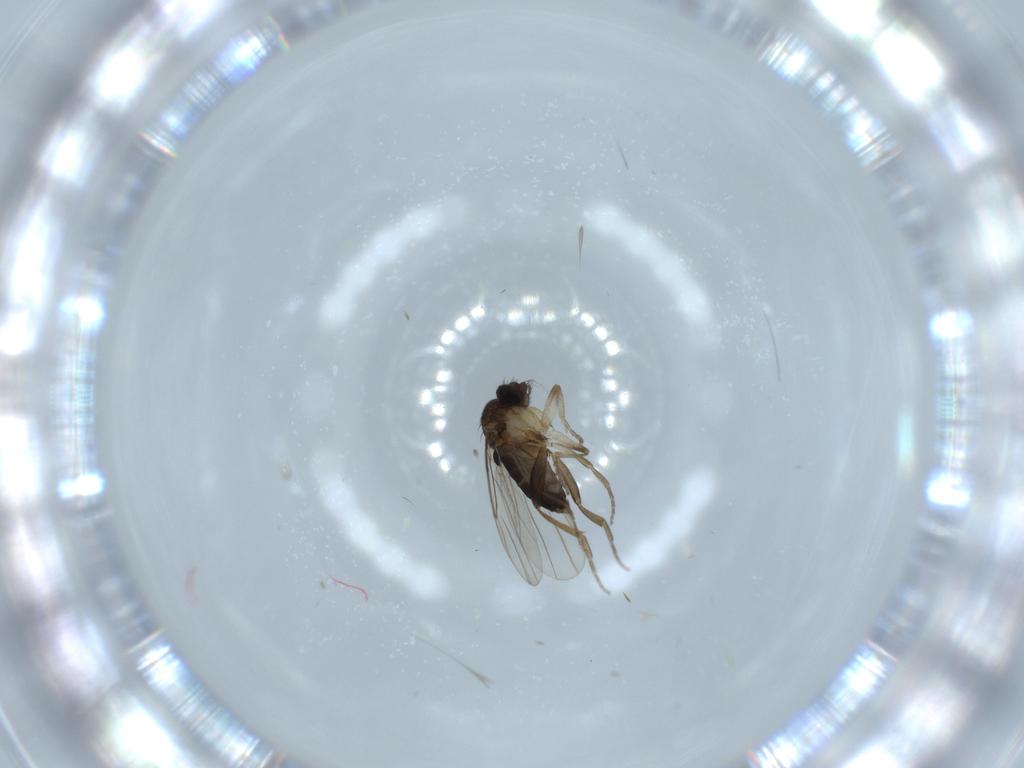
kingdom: Animalia
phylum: Arthropoda
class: Insecta
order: Diptera
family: Phoridae
